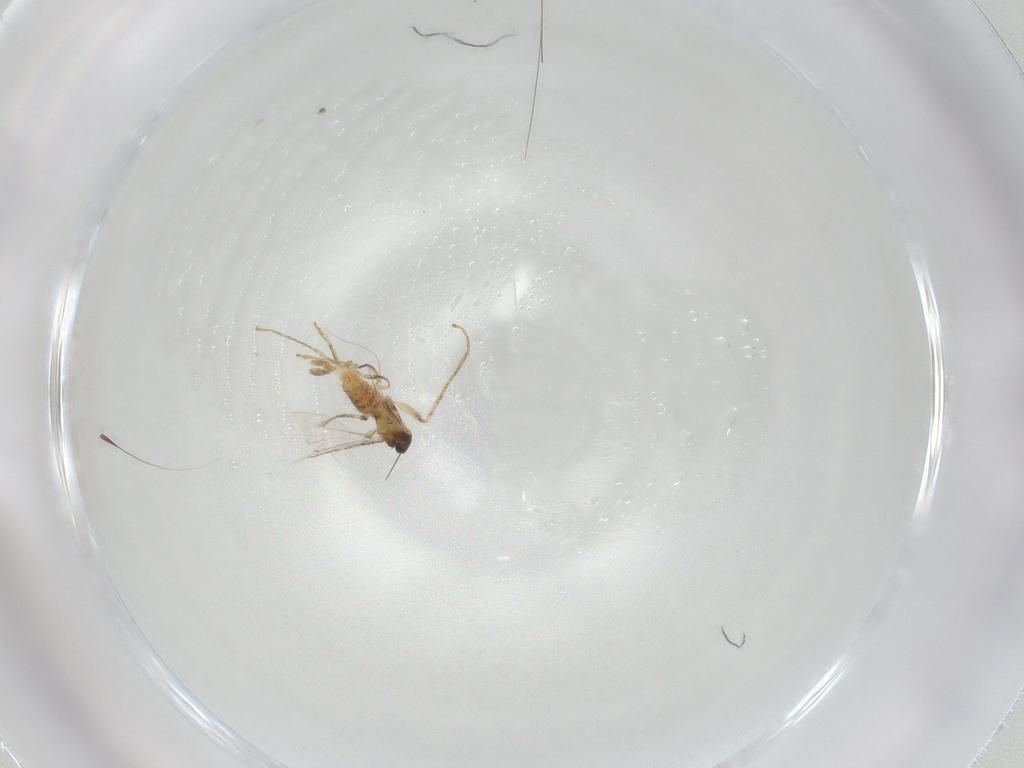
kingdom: Animalia
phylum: Arthropoda
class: Insecta
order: Diptera
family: Cecidomyiidae
